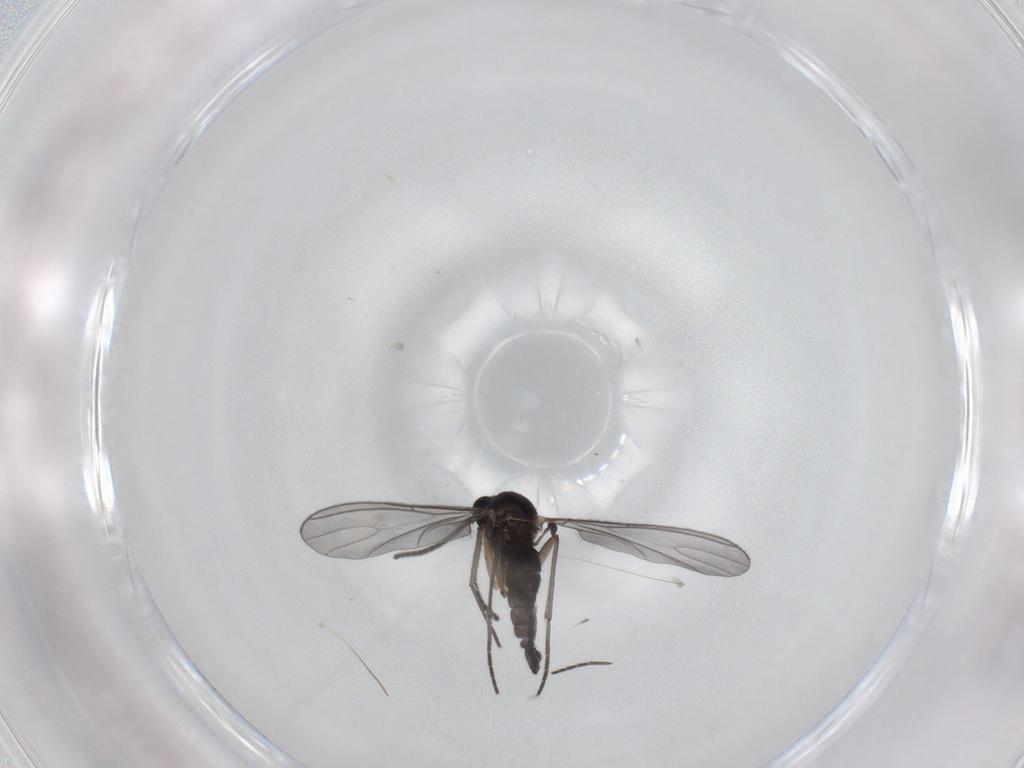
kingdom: Animalia
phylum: Arthropoda
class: Insecta
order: Diptera
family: Sciaridae
